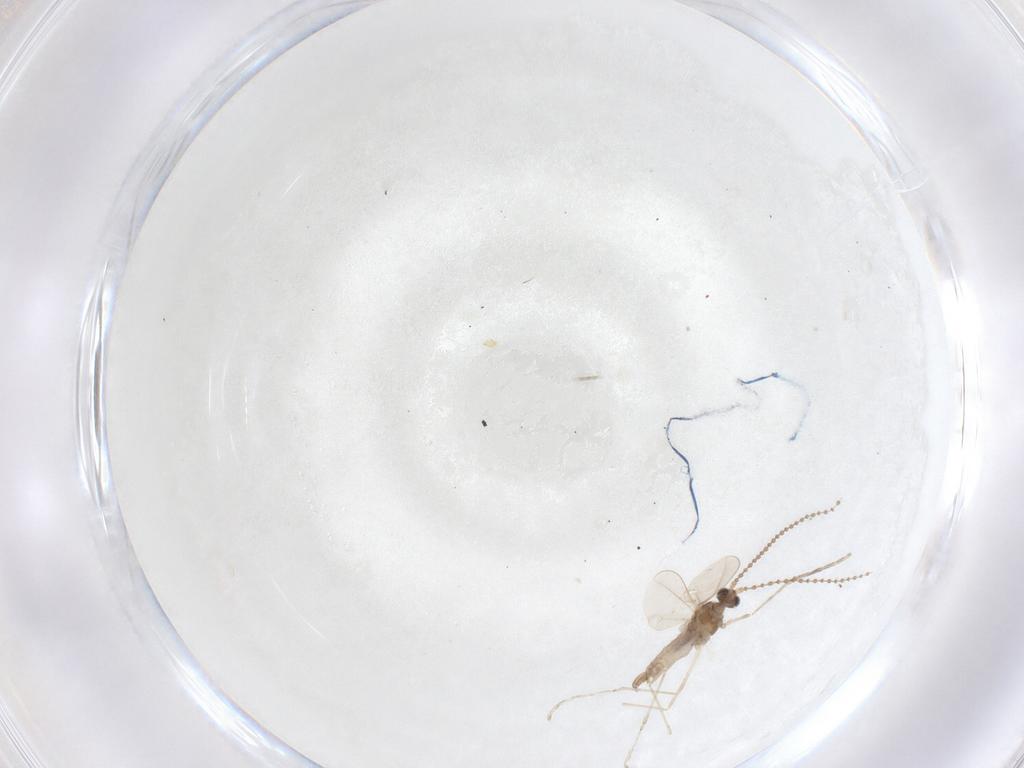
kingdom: Animalia
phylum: Arthropoda
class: Insecta
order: Diptera
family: Cecidomyiidae
